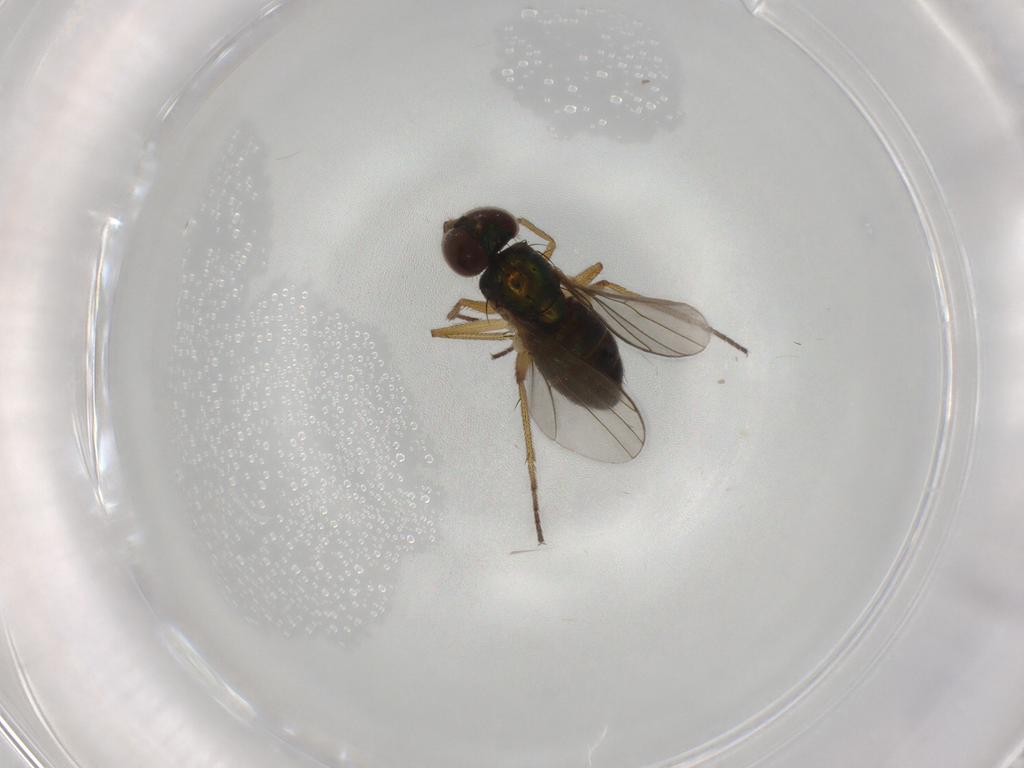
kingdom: Animalia
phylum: Arthropoda
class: Insecta
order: Diptera
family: Dolichopodidae
